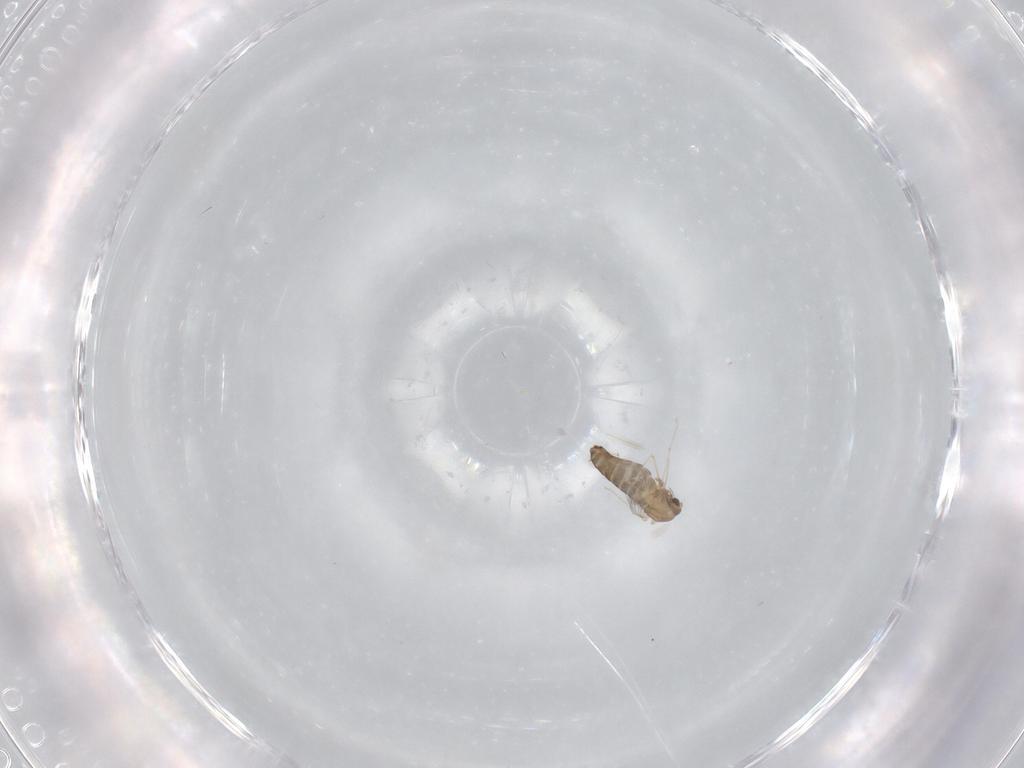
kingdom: Animalia
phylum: Arthropoda
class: Insecta
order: Diptera
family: Chironomidae
